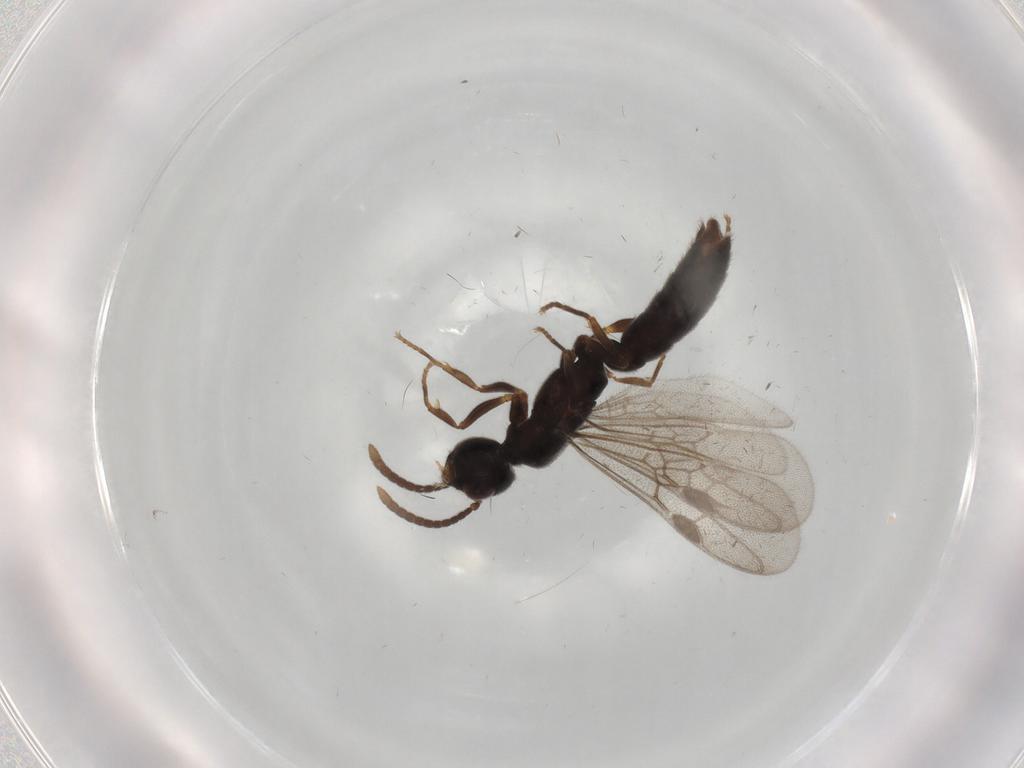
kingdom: Animalia
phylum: Arthropoda
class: Insecta
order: Hymenoptera
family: Formicidae
